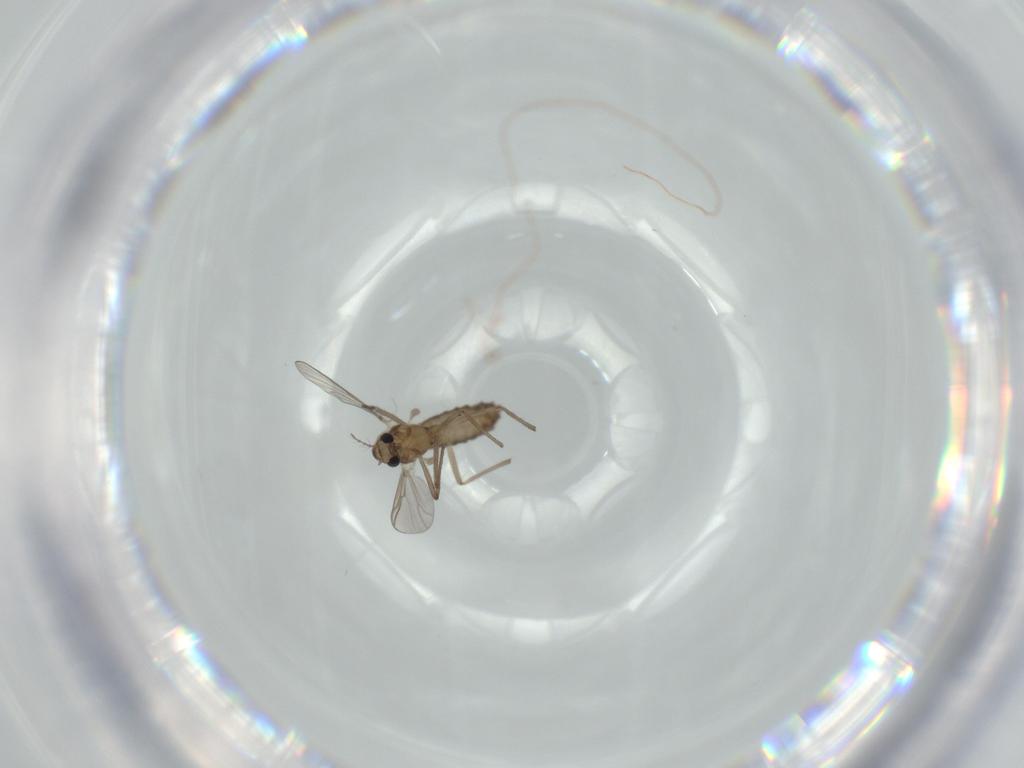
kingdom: Animalia
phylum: Arthropoda
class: Insecta
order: Diptera
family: Chironomidae
